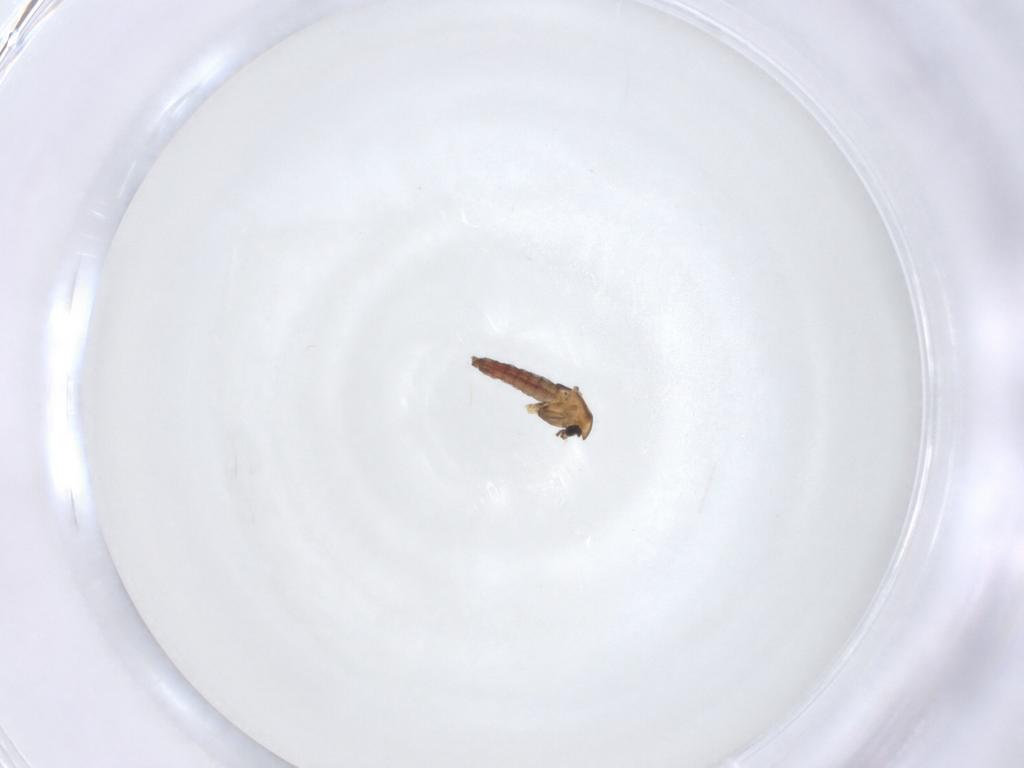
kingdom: Animalia
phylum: Arthropoda
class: Insecta
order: Diptera
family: Chironomidae
